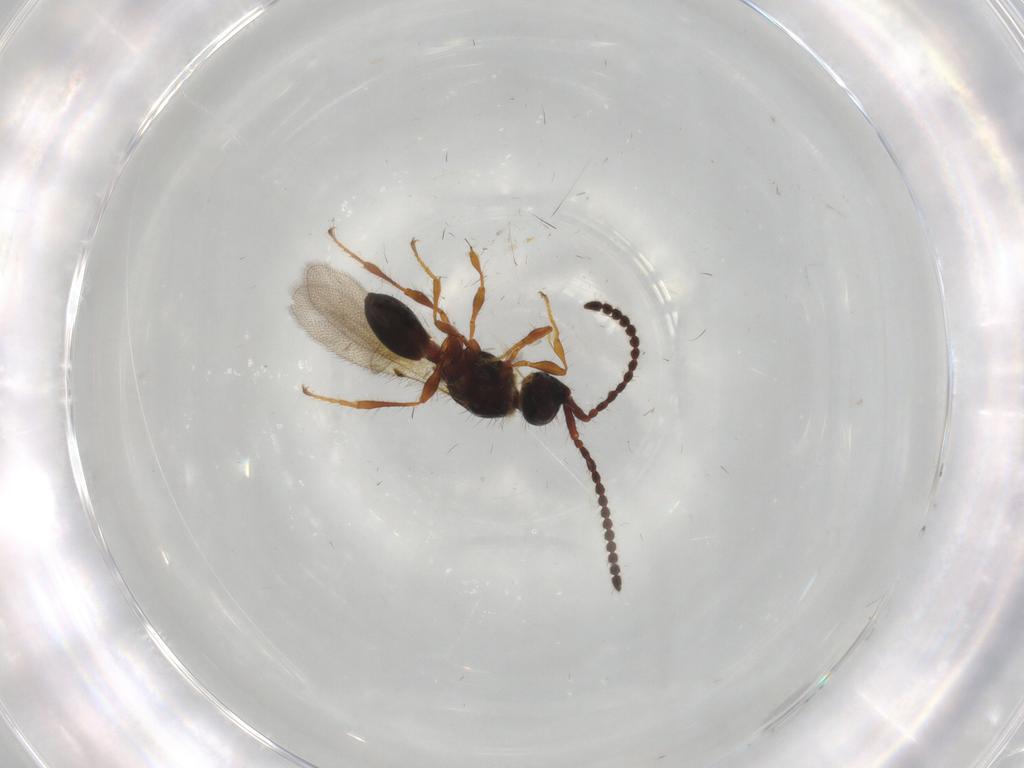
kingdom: Animalia
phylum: Arthropoda
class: Insecta
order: Hymenoptera
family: Diapriidae
